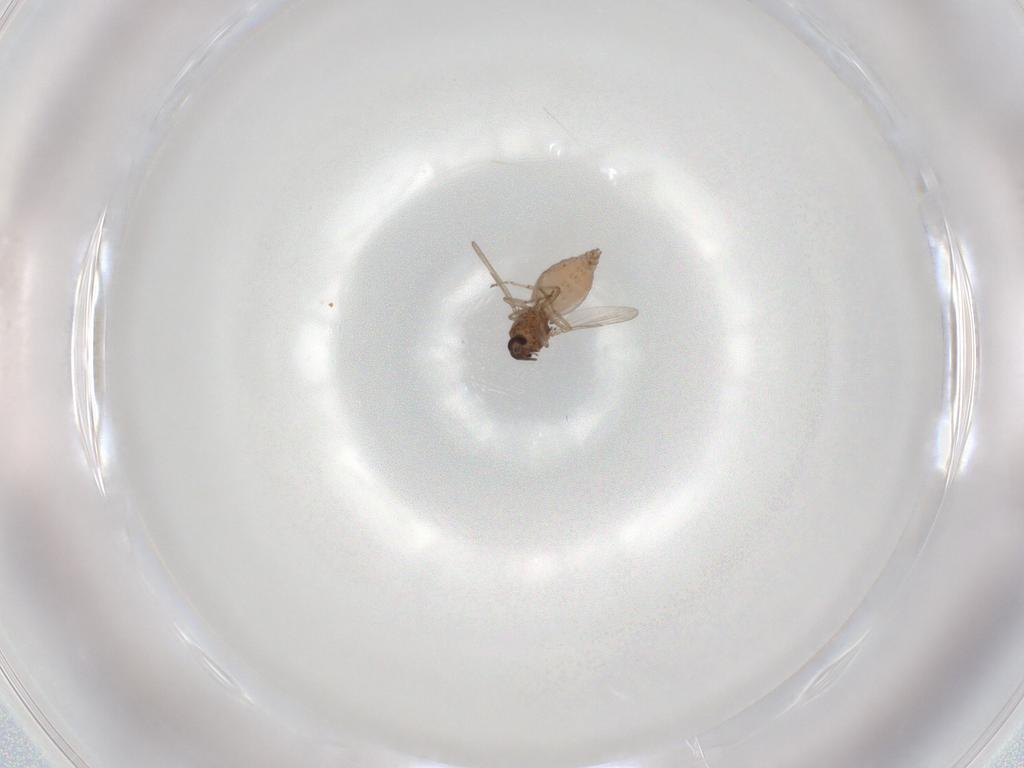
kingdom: Animalia
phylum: Arthropoda
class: Insecta
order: Diptera
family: Ceratopogonidae
